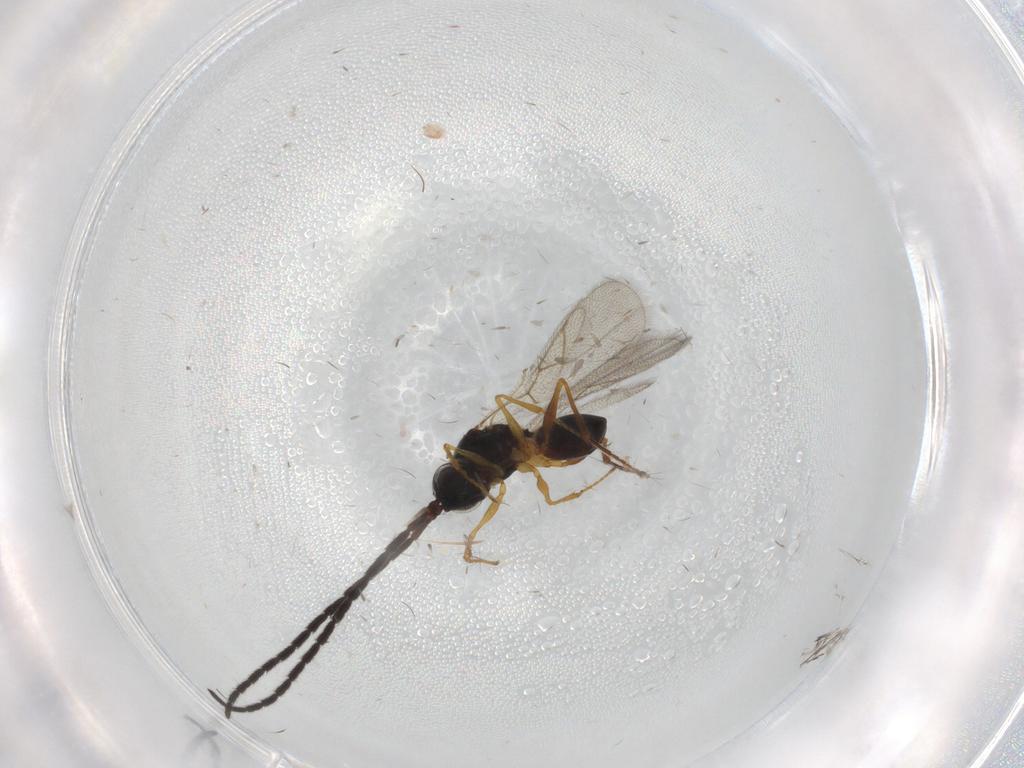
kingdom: Animalia
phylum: Arthropoda
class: Insecta
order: Hymenoptera
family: Figitidae
